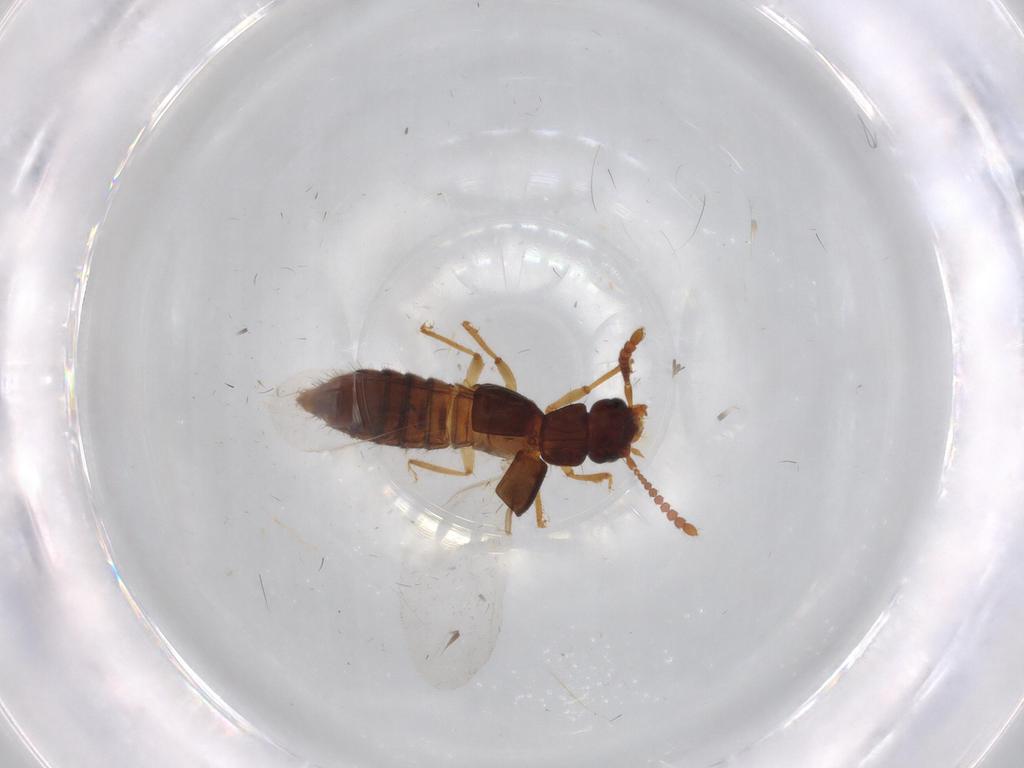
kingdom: Animalia
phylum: Arthropoda
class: Insecta
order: Coleoptera
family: Staphylinidae
